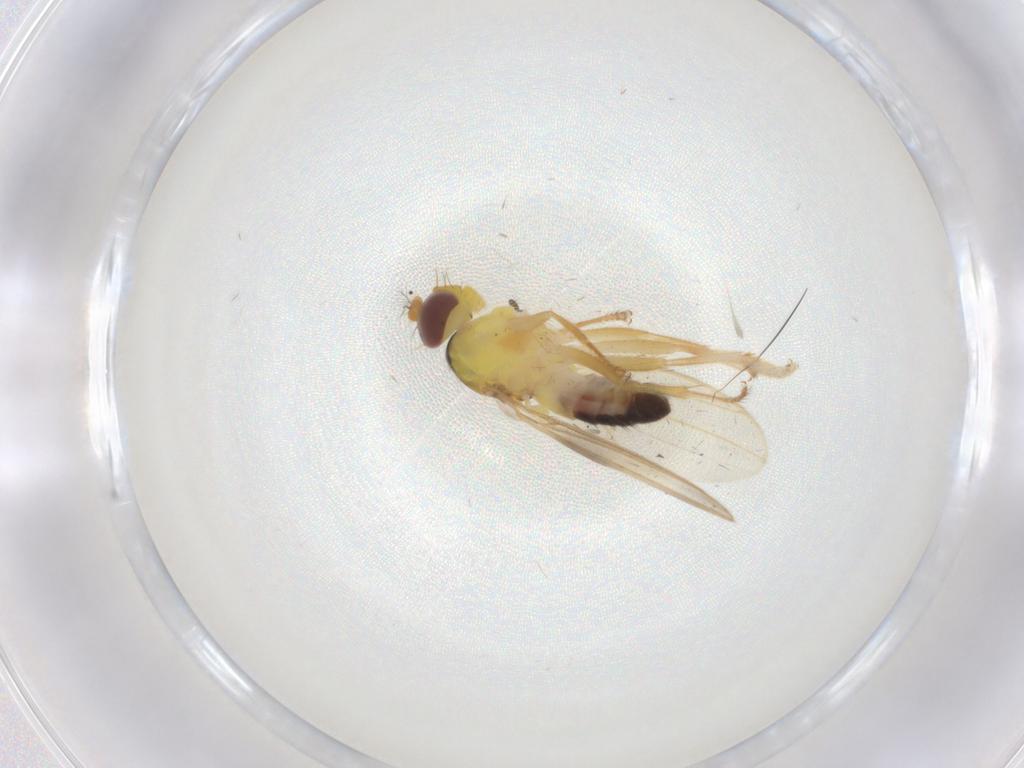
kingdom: Animalia
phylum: Arthropoda
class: Insecta
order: Diptera
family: Periscelididae
